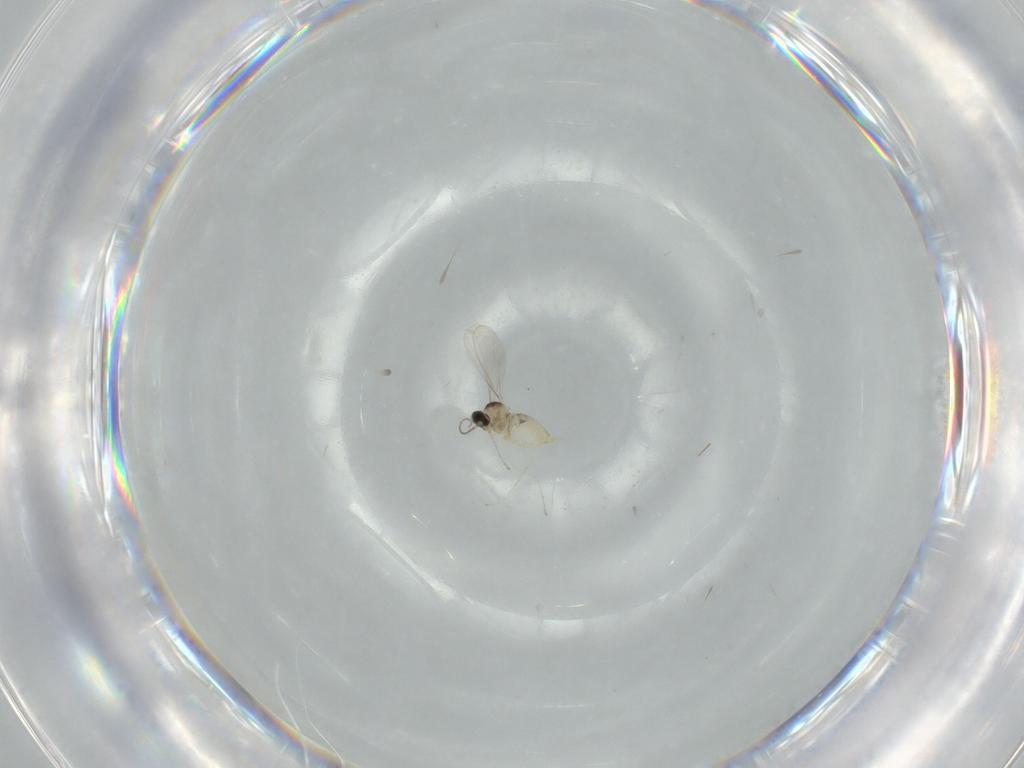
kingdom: Animalia
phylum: Arthropoda
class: Insecta
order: Diptera
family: Cecidomyiidae
